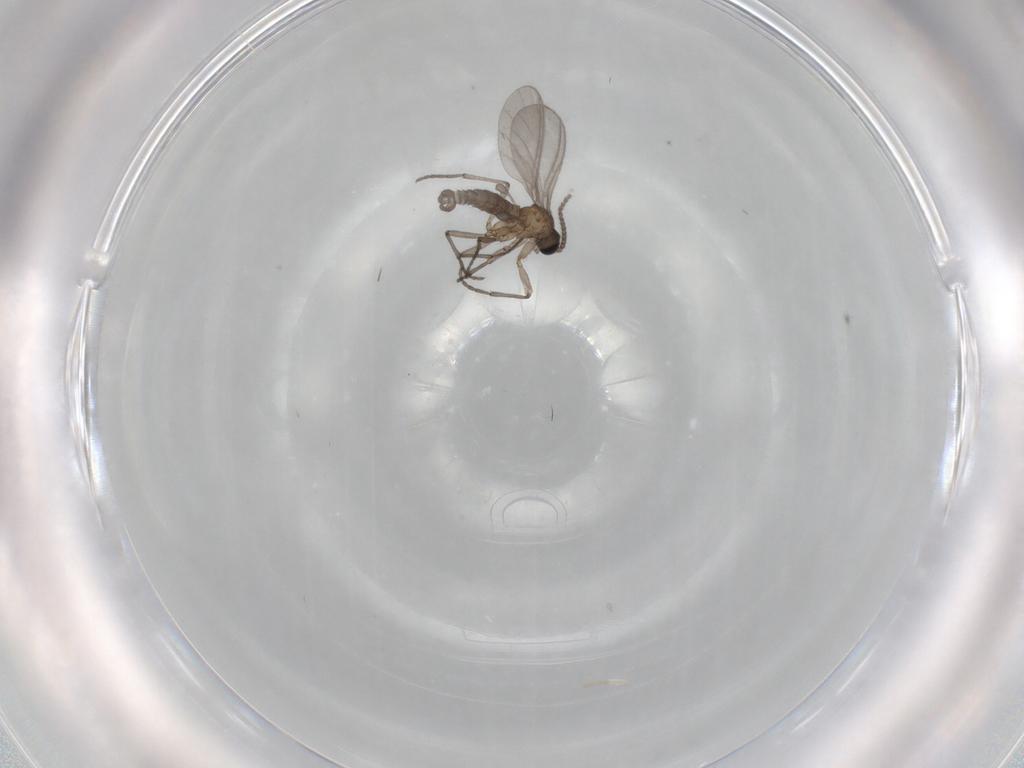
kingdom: Animalia
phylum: Arthropoda
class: Insecta
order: Diptera
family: Sciaridae
